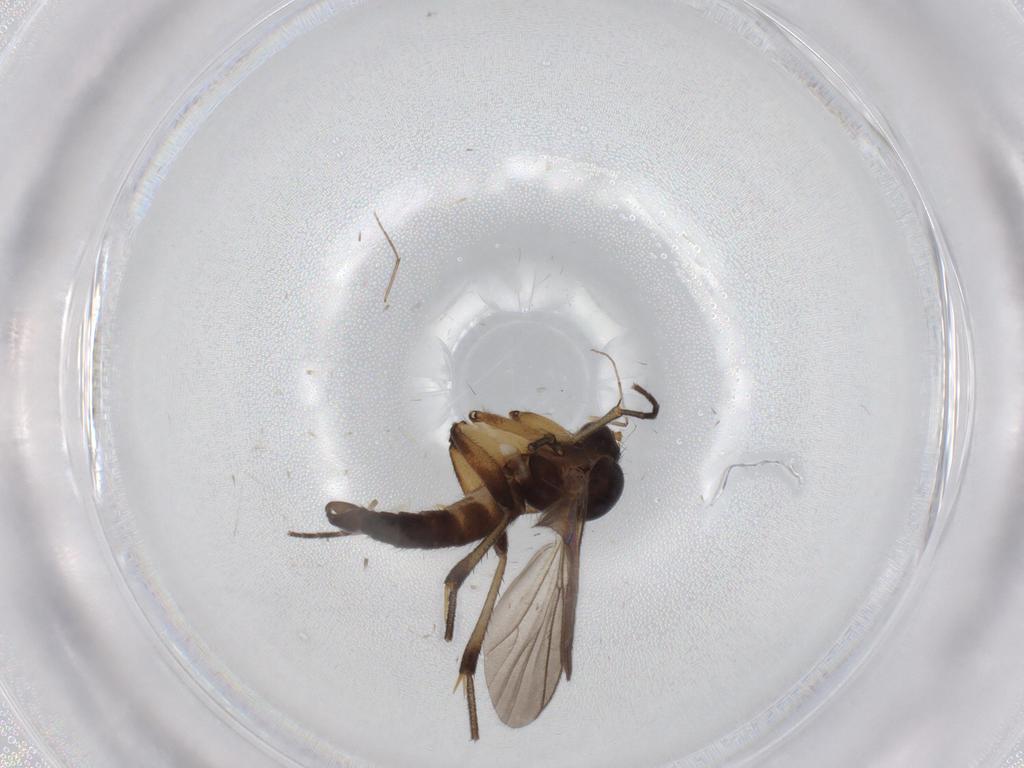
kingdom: Animalia
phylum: Arthropoda
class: Insecta
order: Diptera
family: Mycetophilidae
